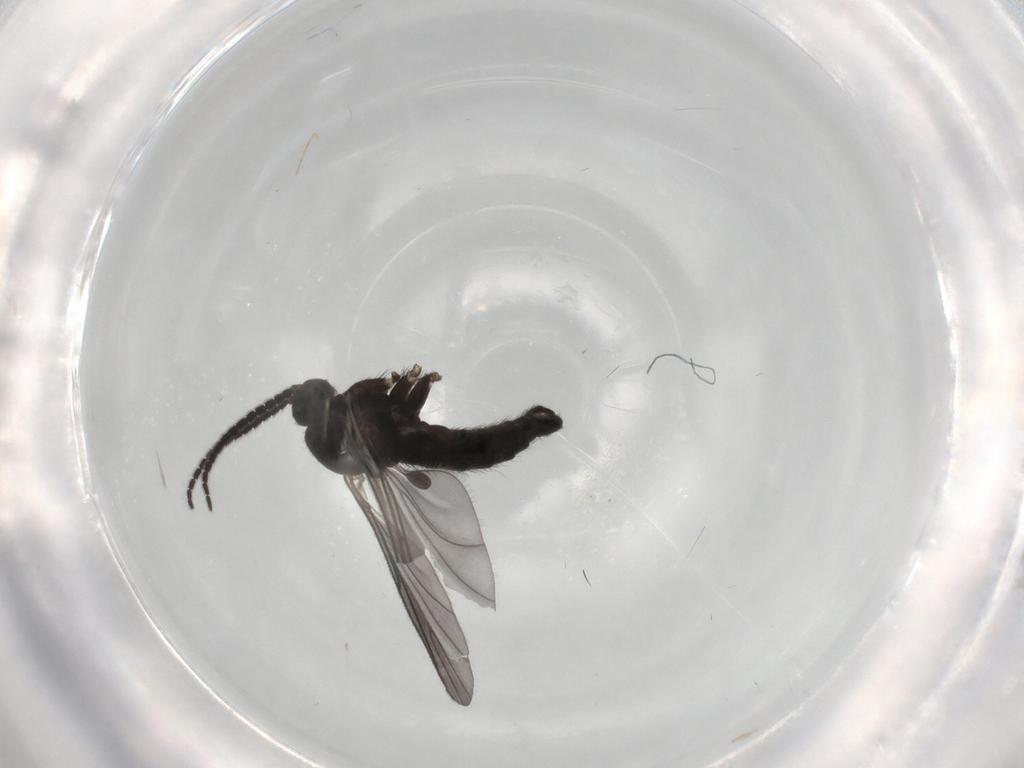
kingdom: Animalia
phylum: Arthropoda
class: Insecta
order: Diptera
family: Sciaridae
